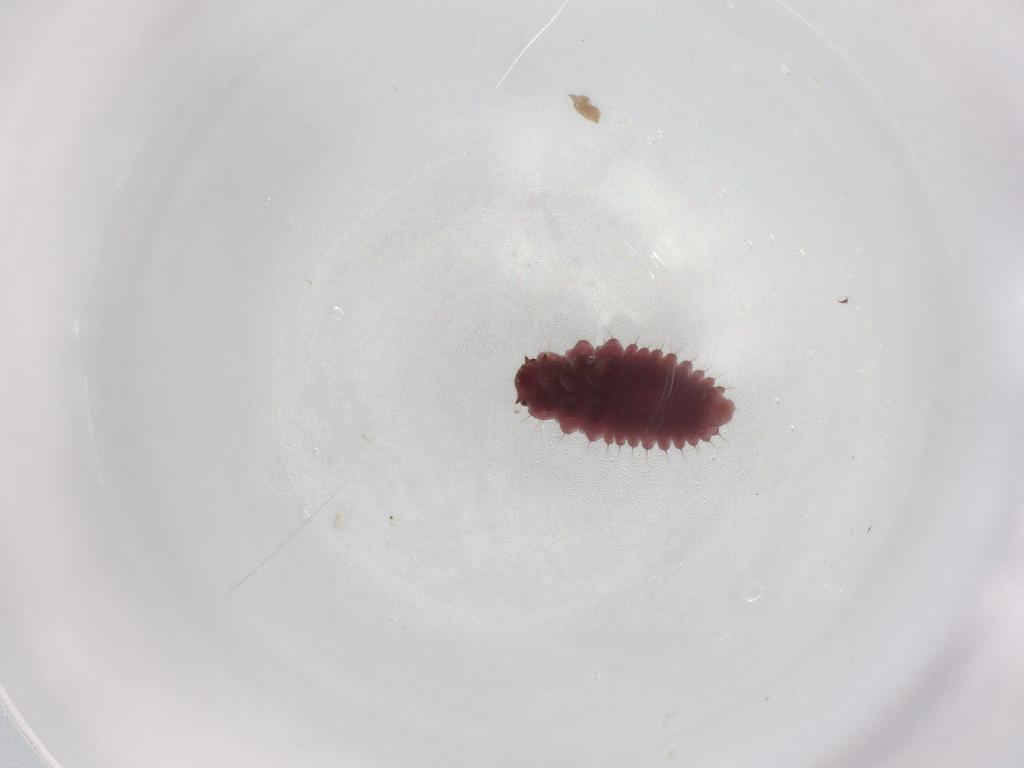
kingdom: Animalia
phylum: Arthropoda
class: Insecta
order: Coleoptera
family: Coccinellidae
